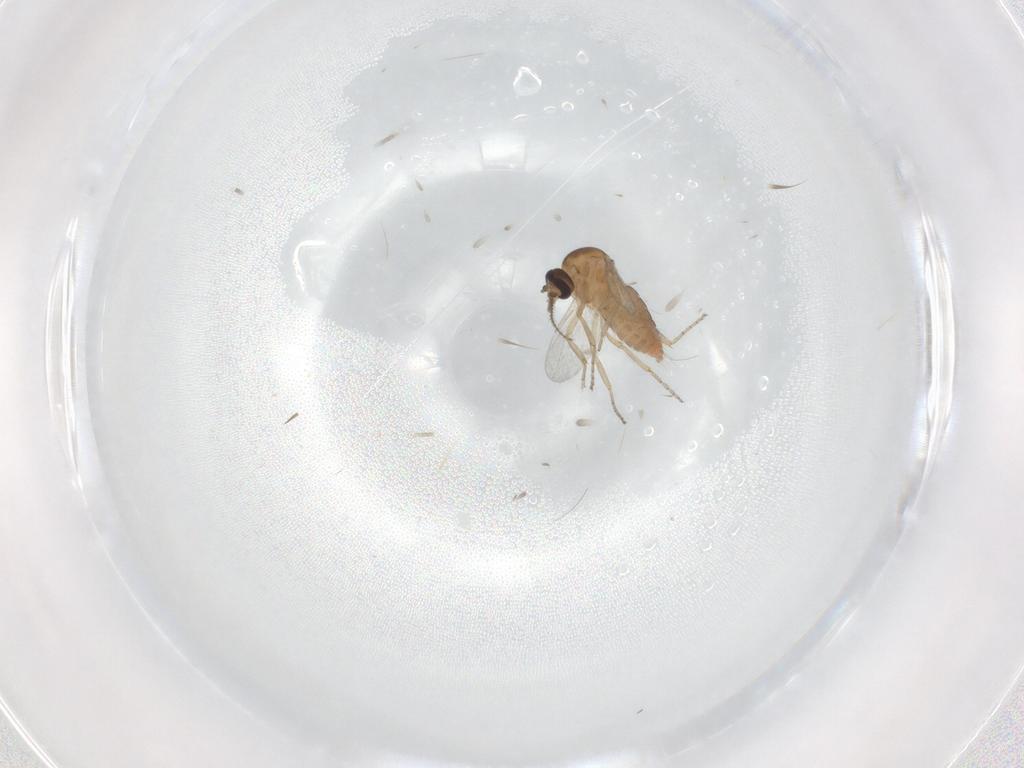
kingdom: Animalia
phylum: Arthropoda
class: Insecta
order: Diptera
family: Ceratopogonidae
